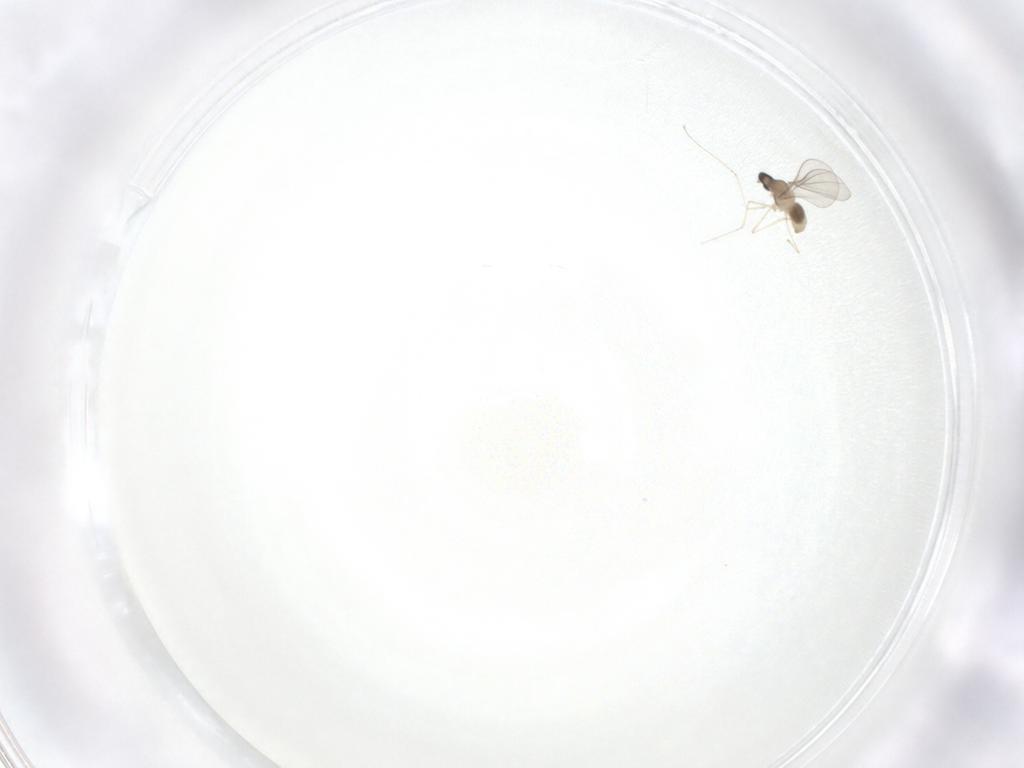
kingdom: Animalia
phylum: Arthropoda
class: Insecta
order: Diptera
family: Cecidomyiidae
